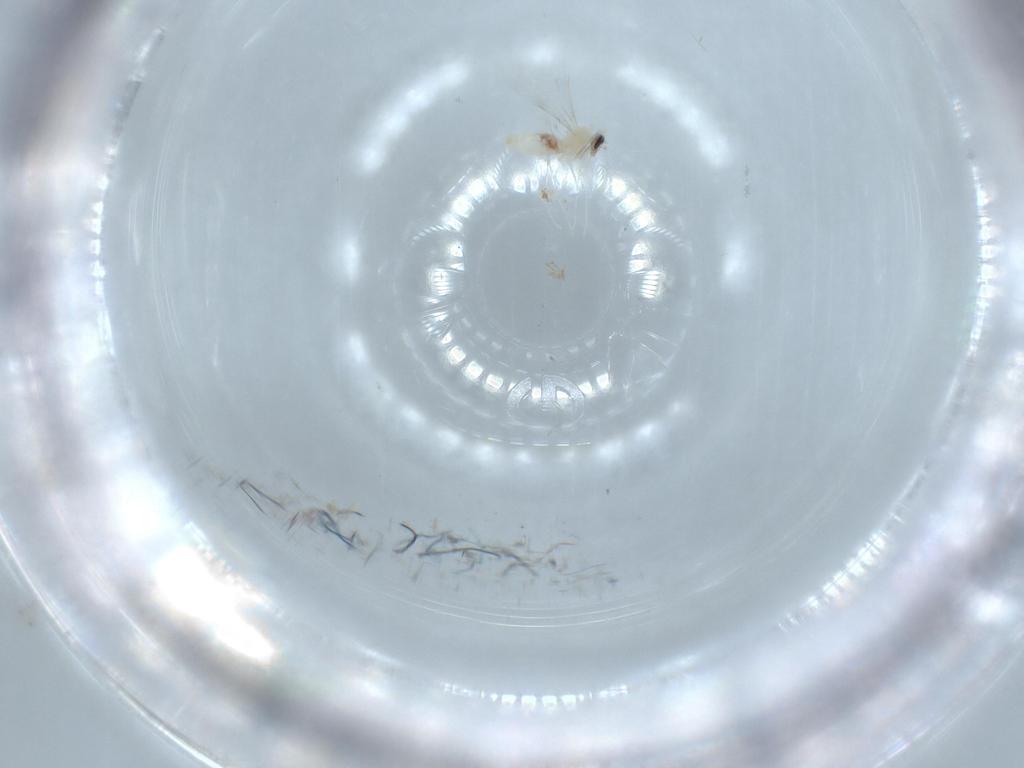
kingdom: Animalia
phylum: Arthropoda
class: Insecta
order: Diptera
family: Cecidomyiidae
